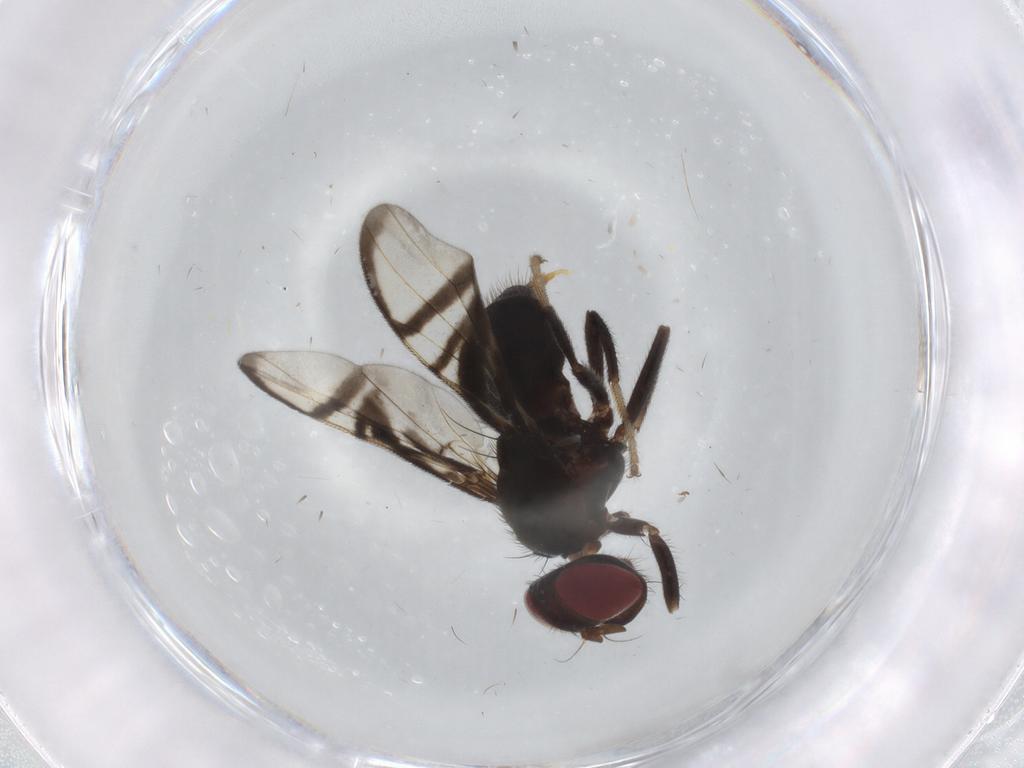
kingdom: Animalia
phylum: Arthropoda
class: Insecta
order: Diptera
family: Platystomatidae
